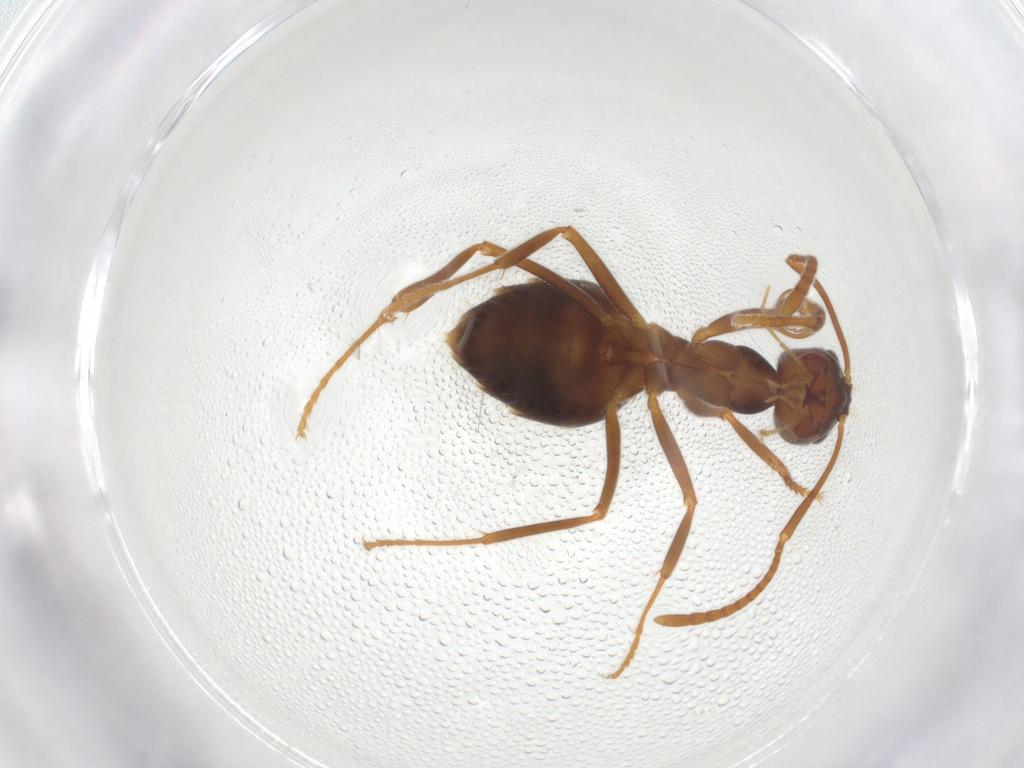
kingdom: Animalia
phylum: Arthropoda
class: Insecta
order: Hymenoptera
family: Formicidae
